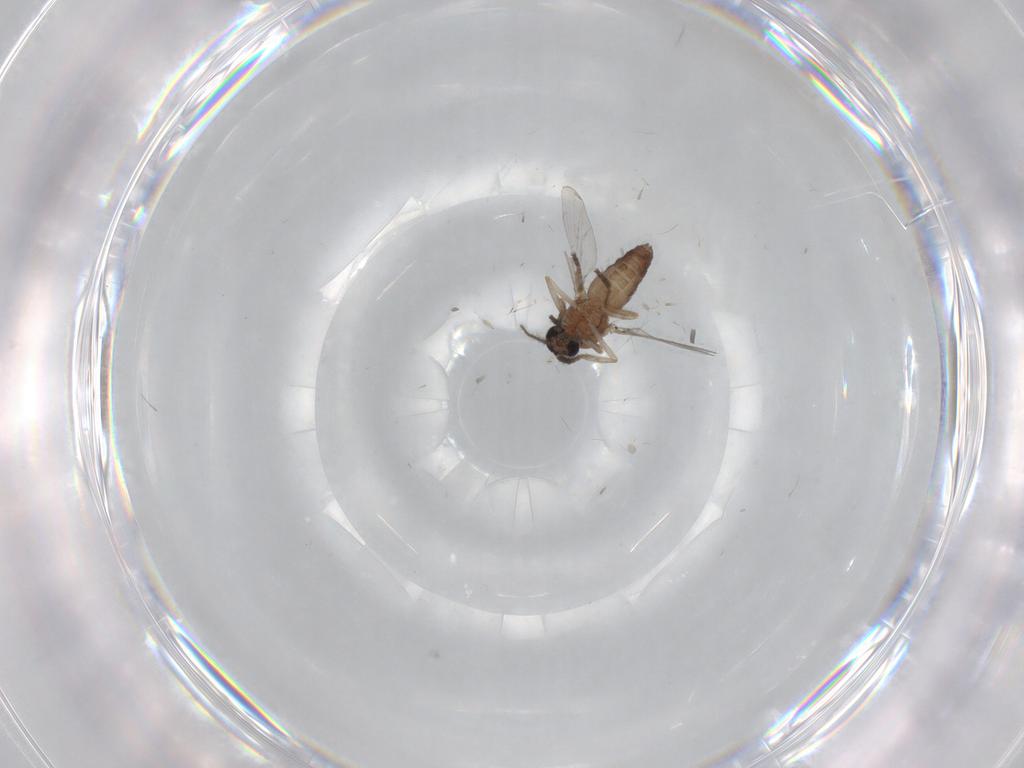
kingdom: Animalia
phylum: Arthropoda
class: Insecta
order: Diptera
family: Ceratopogonidae
